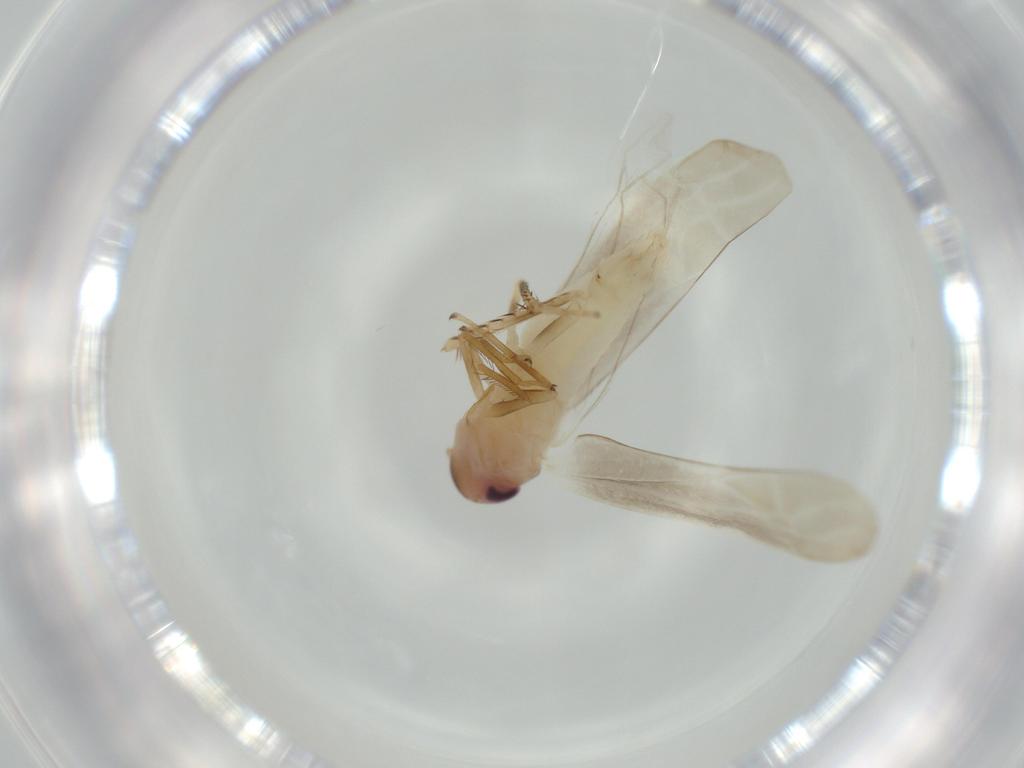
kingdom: Animalia
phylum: Arthropoda
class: Insecta
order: Hemiptera
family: Cicadellidae
